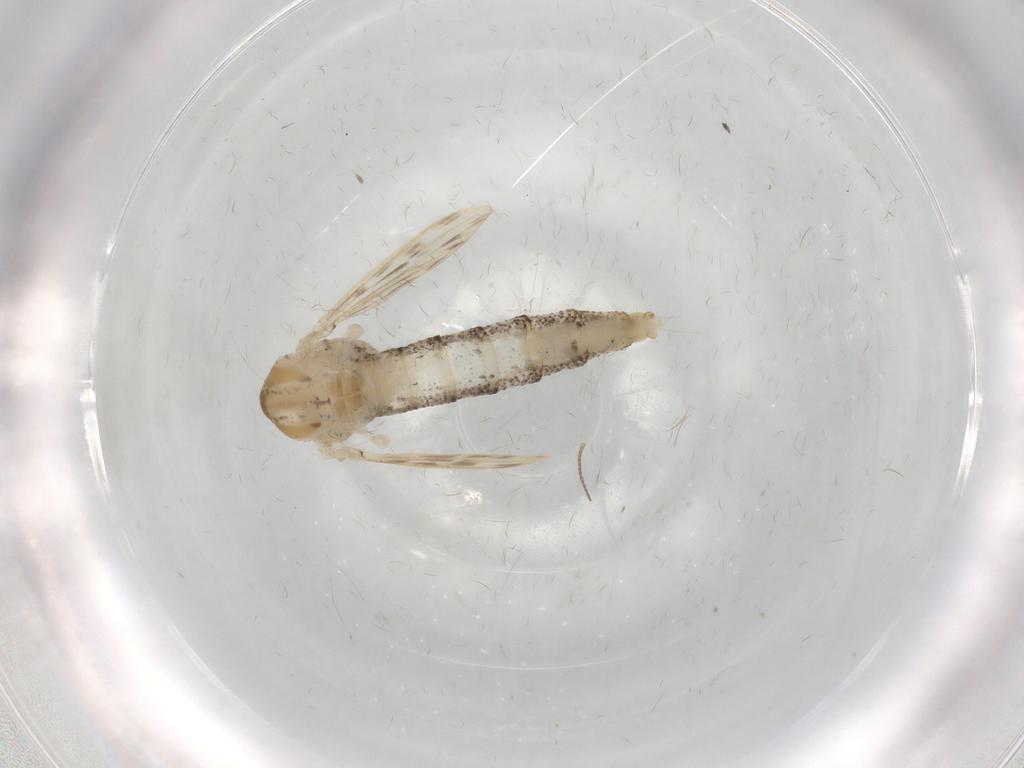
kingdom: Animalia
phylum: Arthropoda
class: Insecta
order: Diptera
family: Chaoboridae
